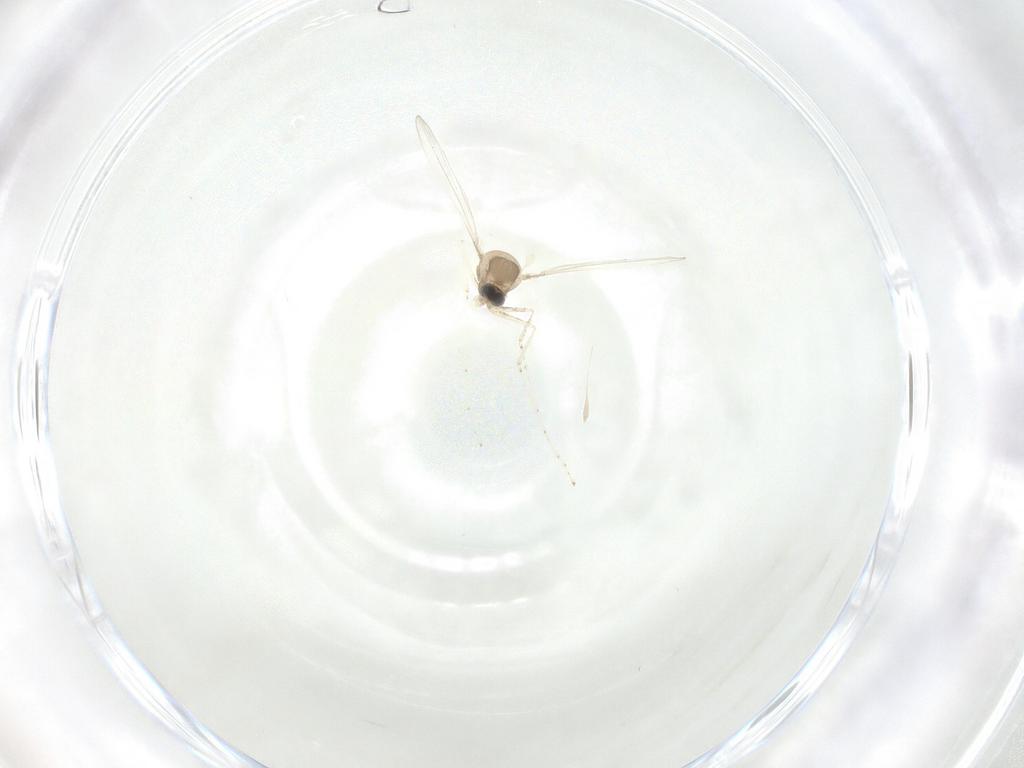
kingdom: Animalia
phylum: Arthropoda
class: Insecta
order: Diptera
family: Cecidomyiidae
